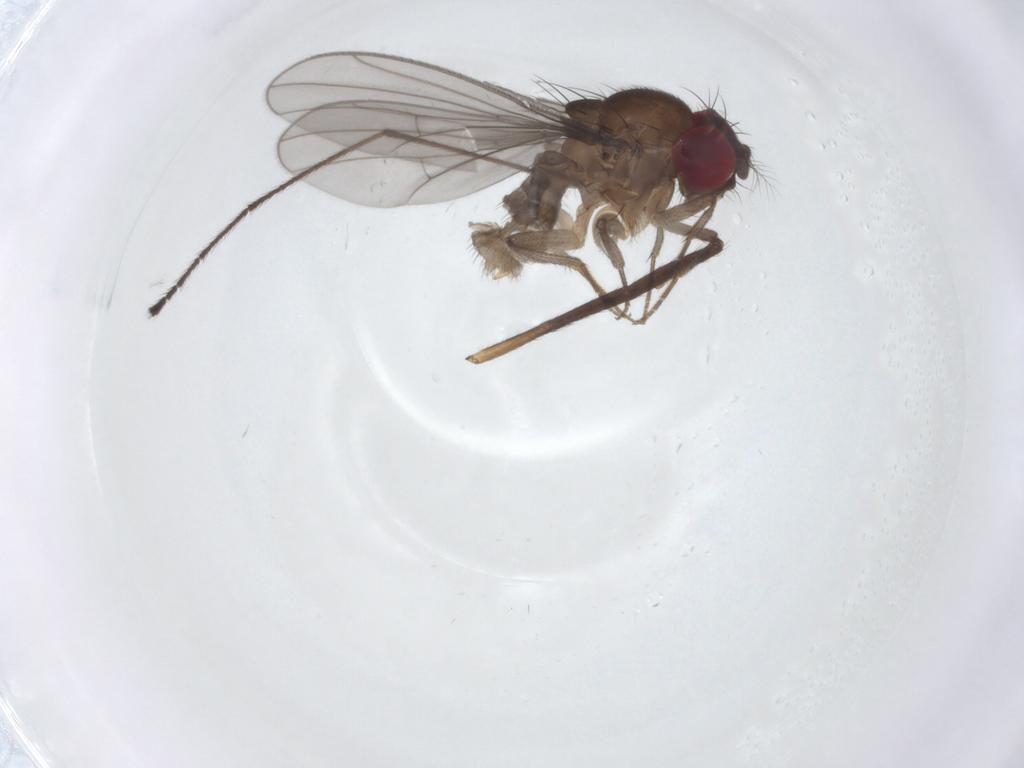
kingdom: Animalia
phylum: Arthropoda
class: Insecta
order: Diptera
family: Drosophilidae
